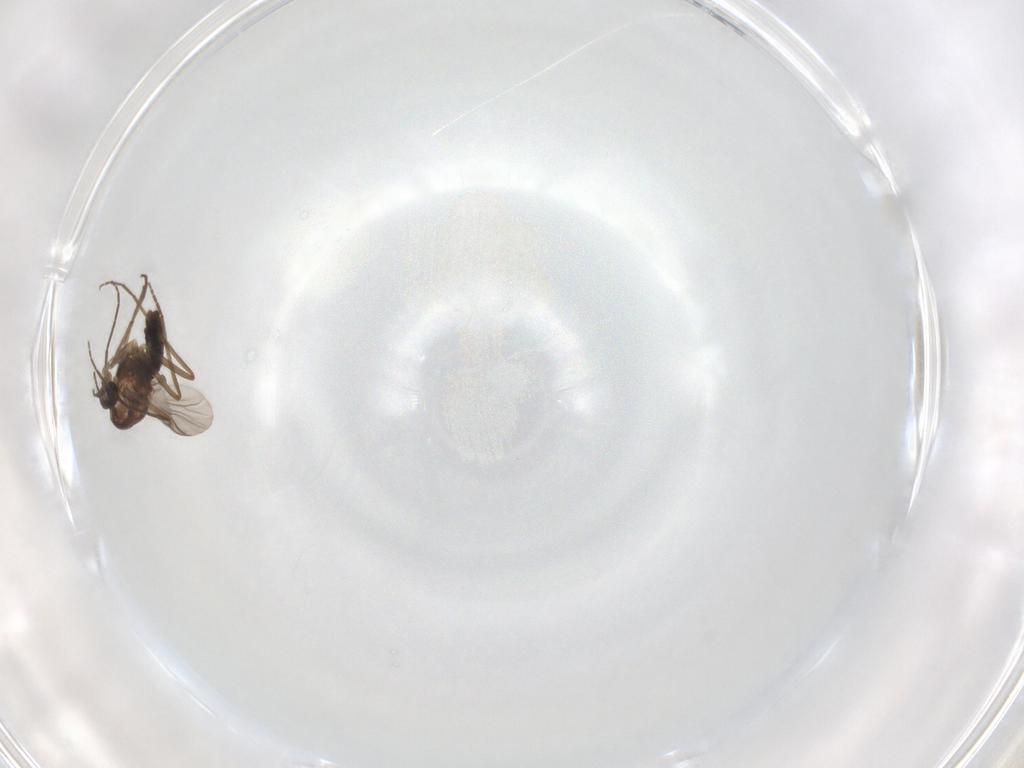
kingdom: Animalia
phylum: Arthropoda
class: Insecta
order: Diptera
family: Chironomidae
